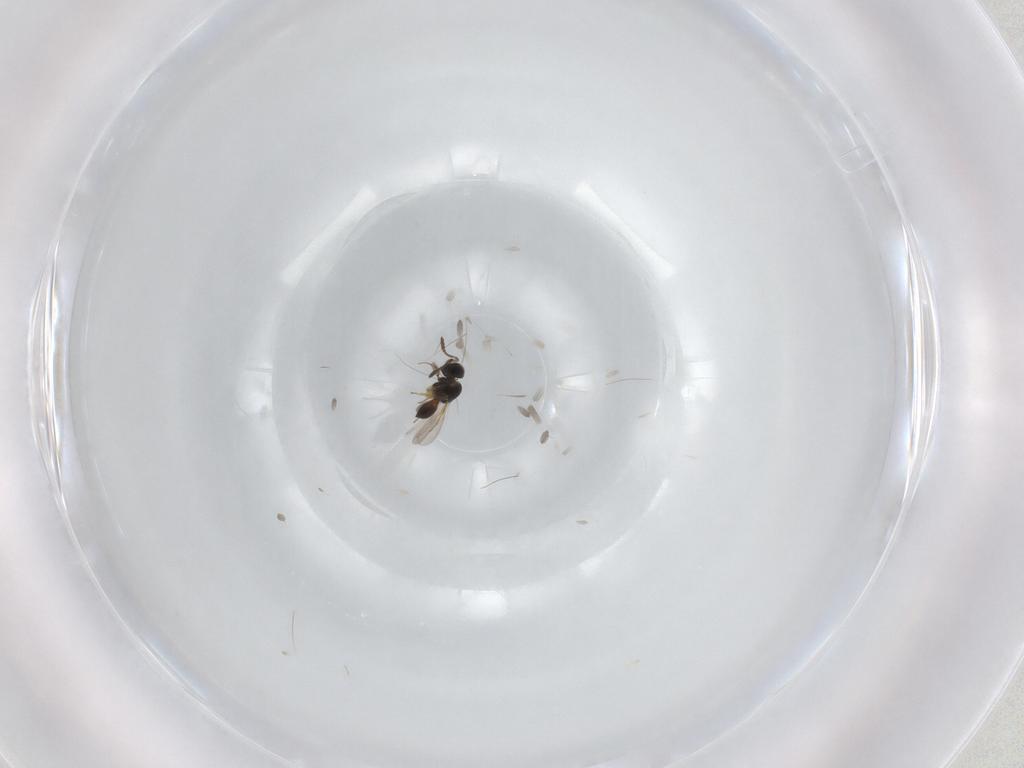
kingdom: Animalia
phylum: Arthropoda
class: Insecta
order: Hymenoptera
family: Scelionidae
